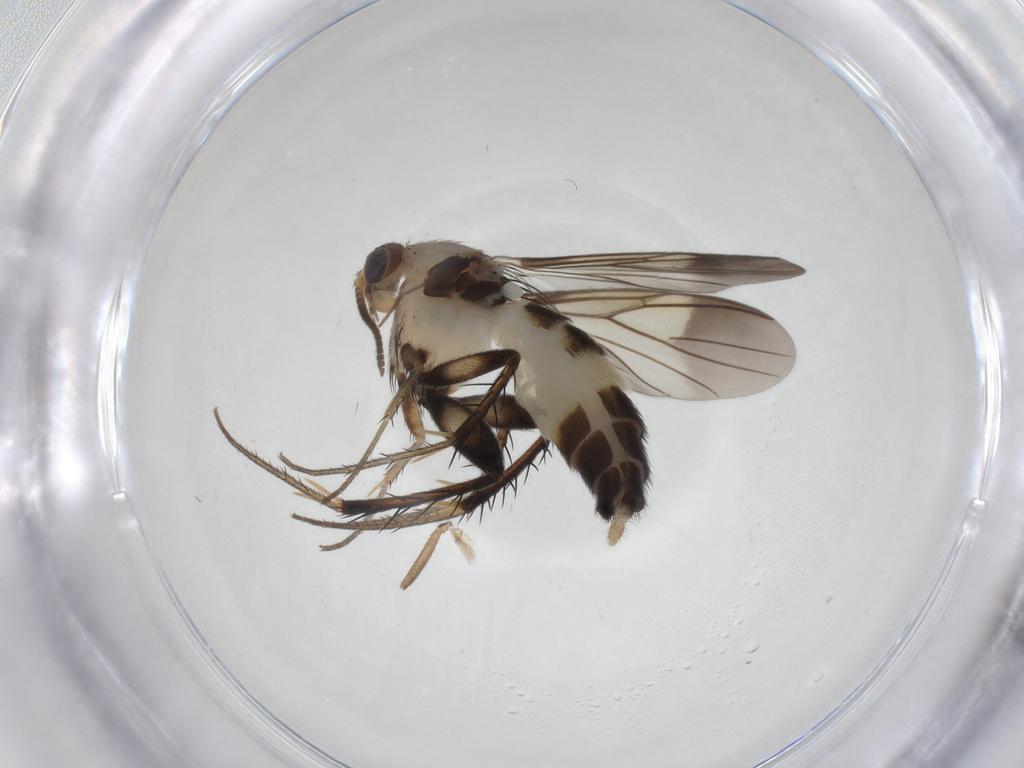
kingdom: Animalia
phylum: Arthropoda
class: Insecta
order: Diptera
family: Mycetophilidae
